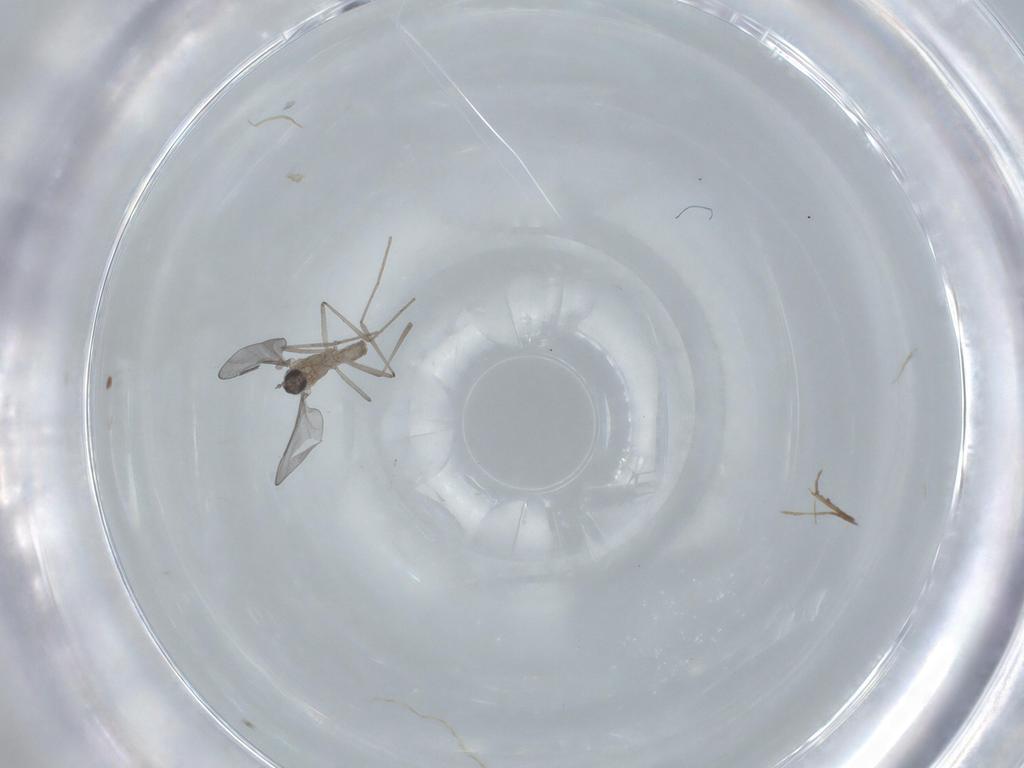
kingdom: Animalia
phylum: Arthropoda
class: Insecta
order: Diptera
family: Cecidomyiidae
